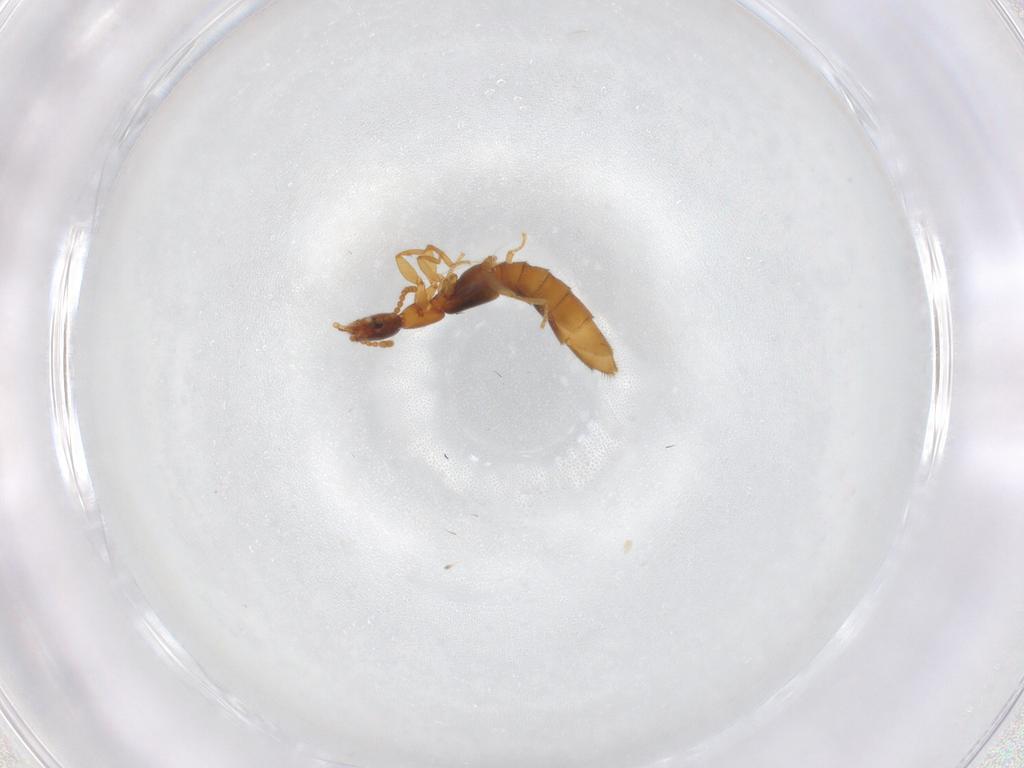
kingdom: Animalia
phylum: Arthropoda
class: Insecta
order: Coleoptera
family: Staphylinidae
